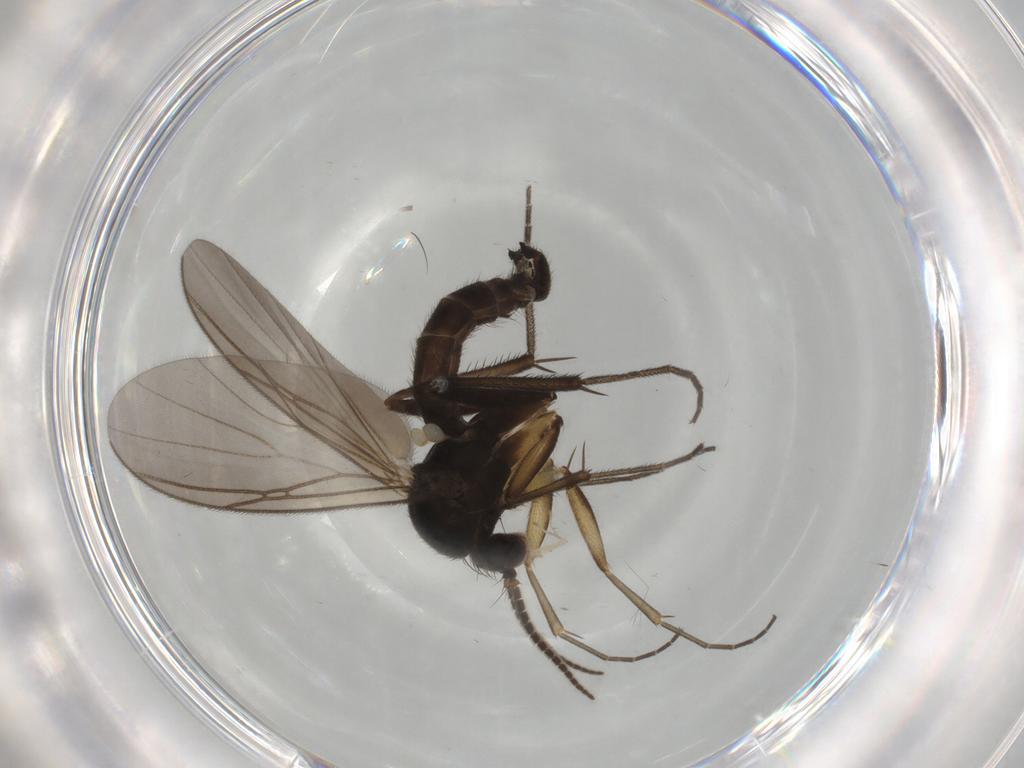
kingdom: Animalia
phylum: Arthropoda
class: Insecta
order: Diptera
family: Mycetophilidae
